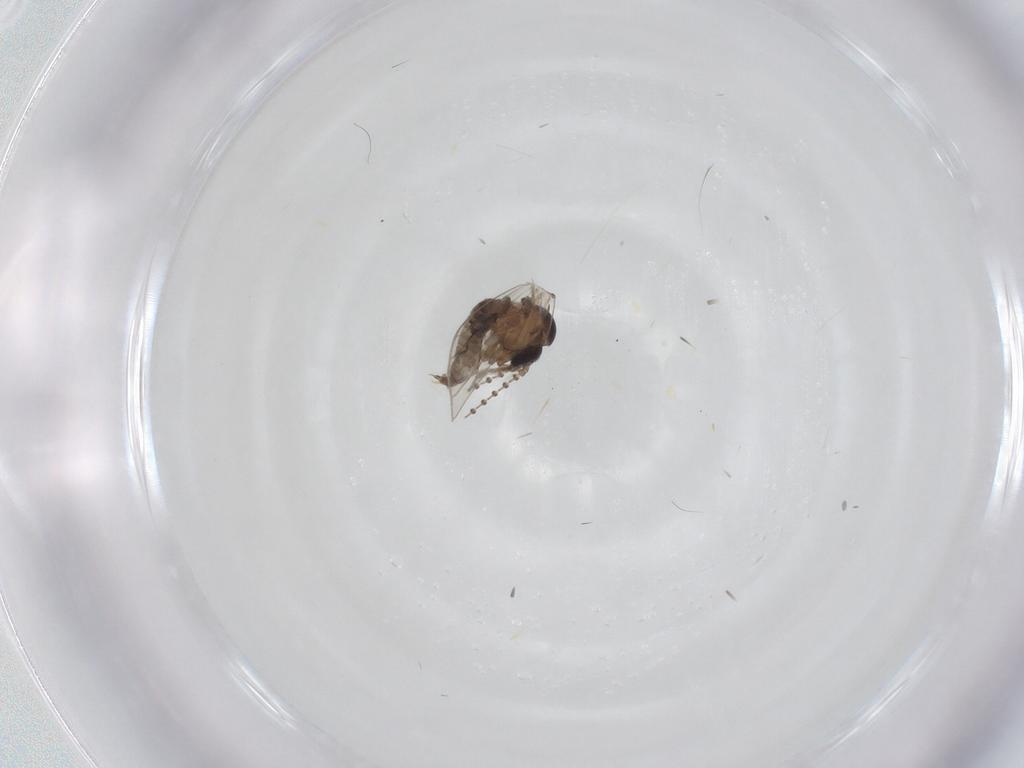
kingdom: Animalia
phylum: Arthropoda
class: Insecta
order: Diptera
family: Psychodidae
